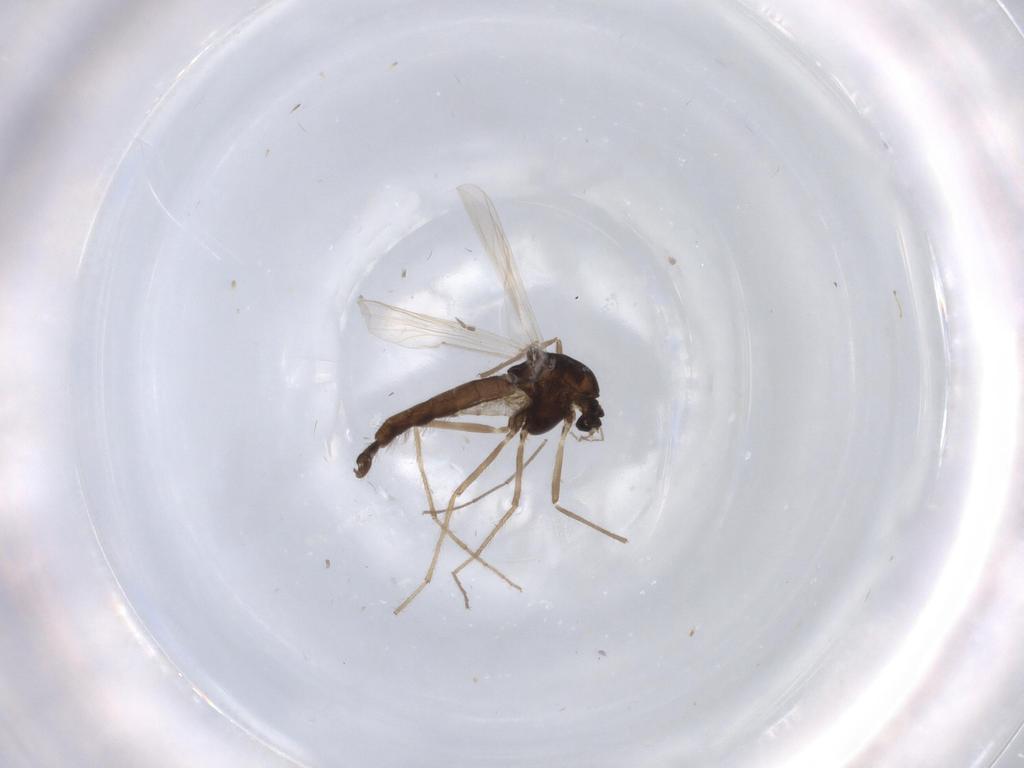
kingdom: Animalia
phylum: Arthropoda
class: Insecta
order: Diptera
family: Chironomidae
